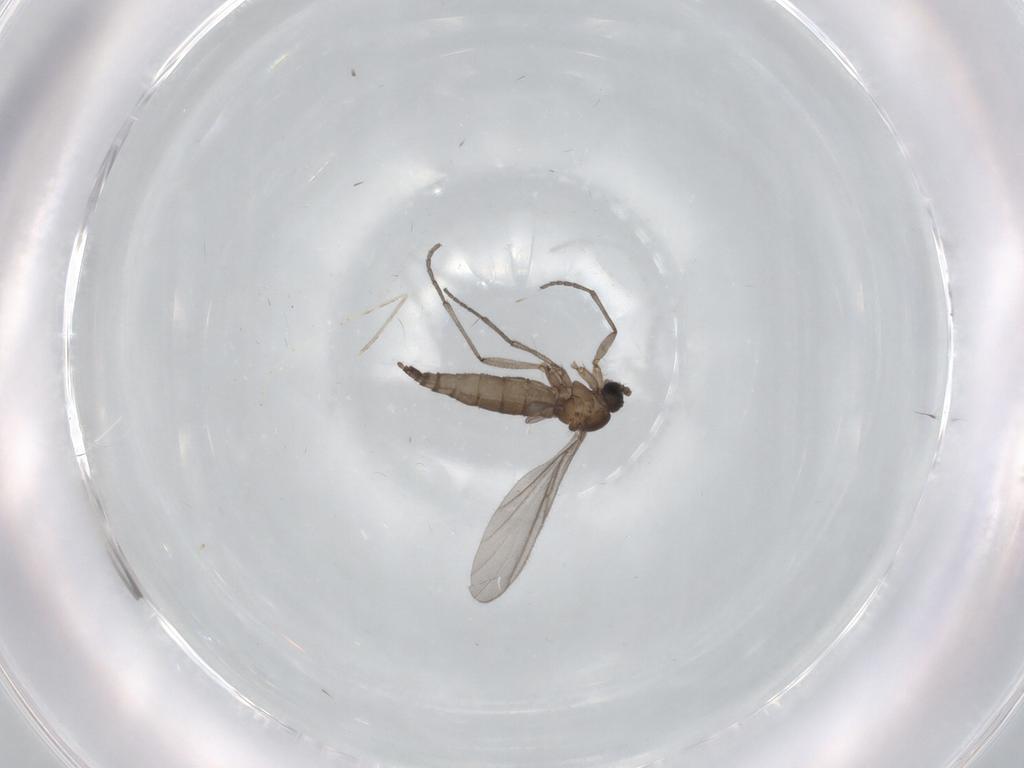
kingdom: Animalia
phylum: Arthropoda
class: Insecta
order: Diptera
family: Sciaridae
